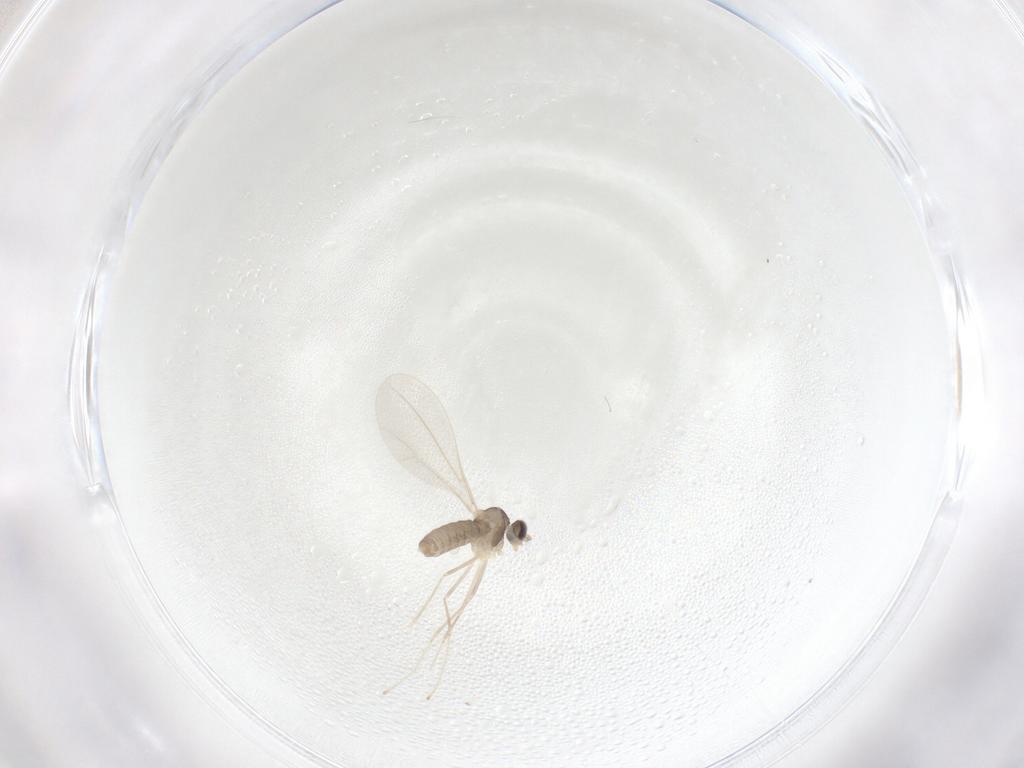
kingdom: Animalia
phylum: Arthropoda
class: Insecta
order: Diptera
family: Cecidomyiidae
